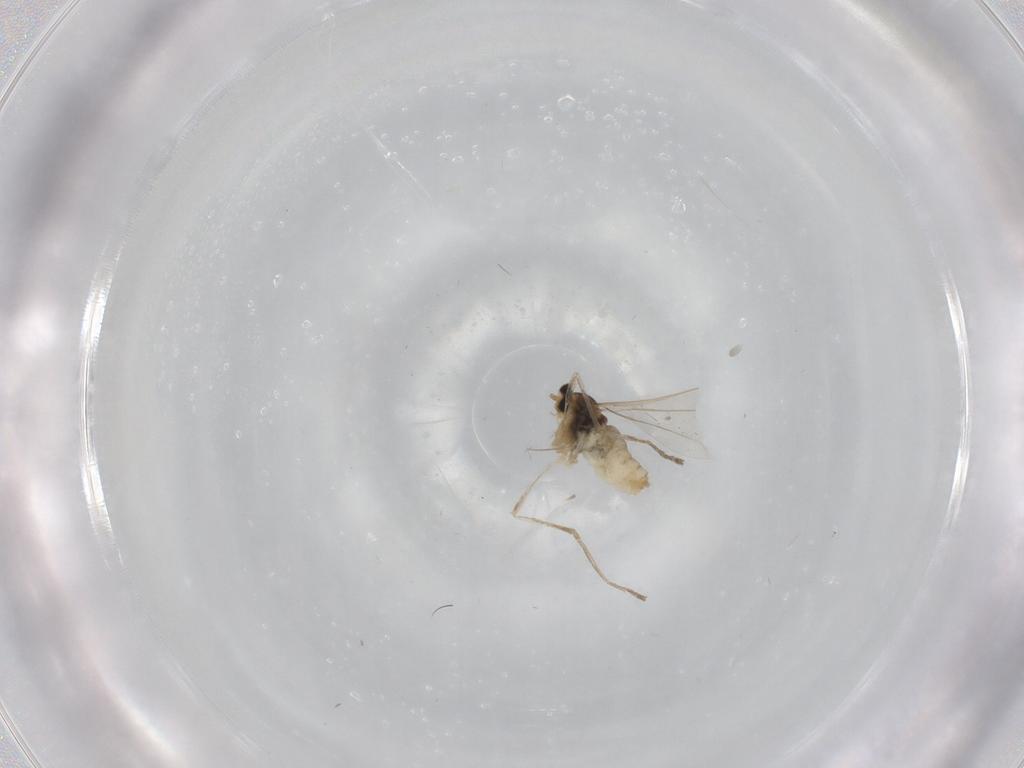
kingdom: Animalia
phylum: Arthropoda
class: Insecta
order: Diptera
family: Cecidomyiidae
